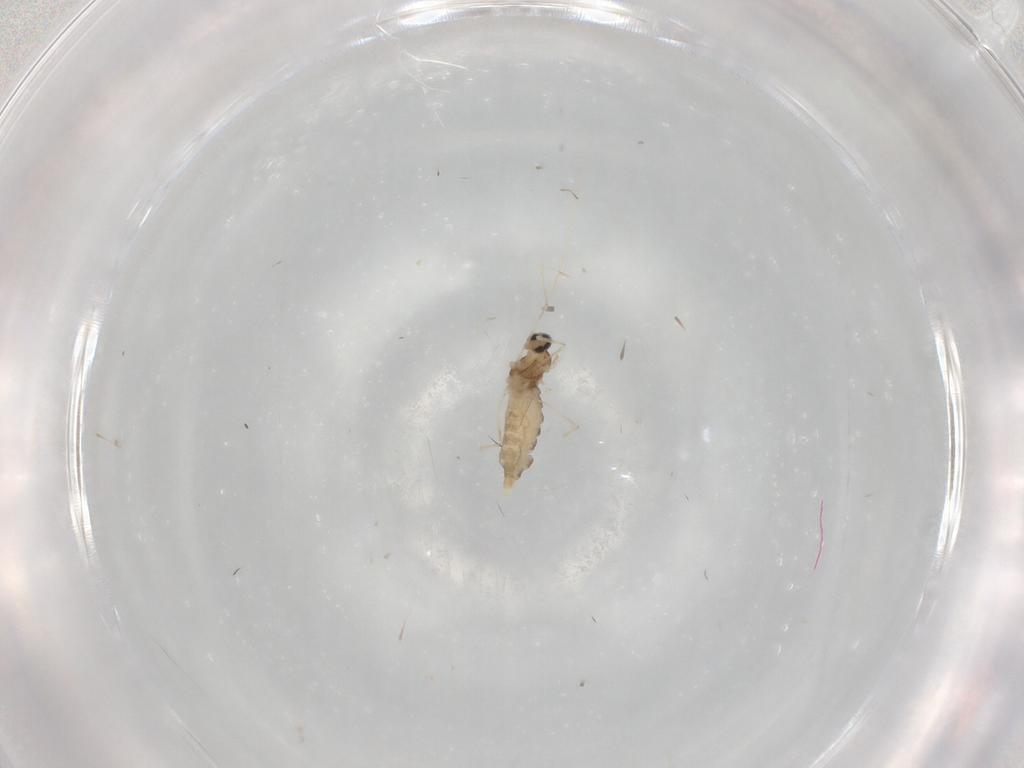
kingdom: Animalia
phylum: Arthropoda
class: Insecta
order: Diptera
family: Cecidomyiidae
